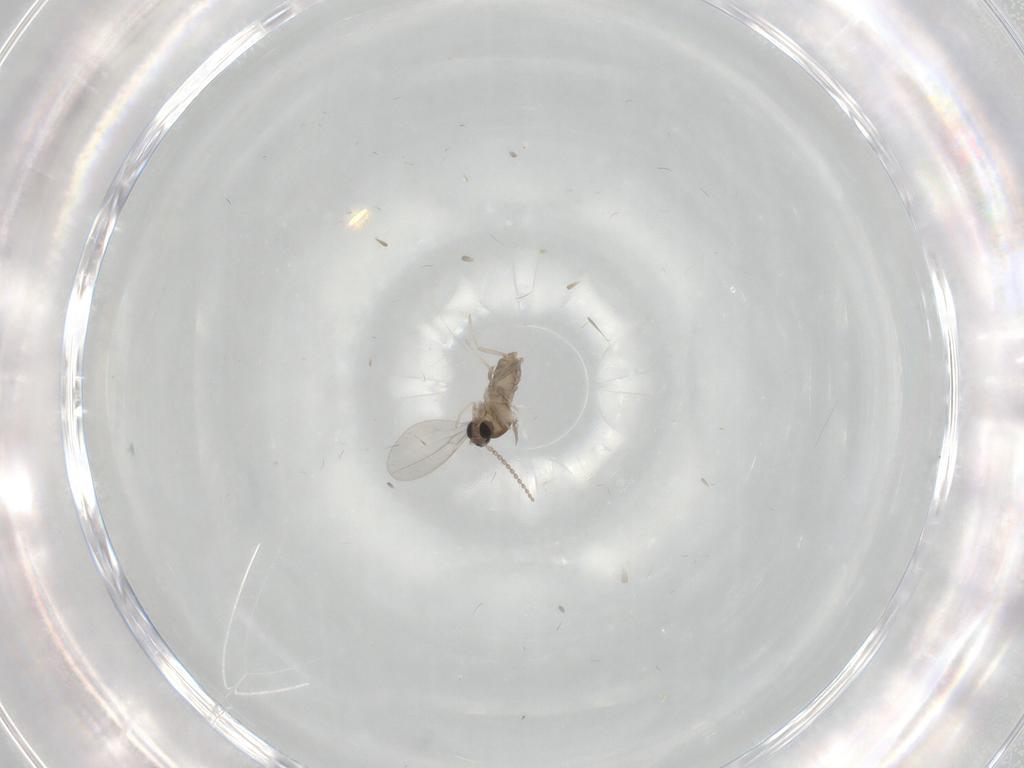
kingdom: Animalia
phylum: Arthropoda
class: Insecta
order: Diptera
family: Cecidomyiidae
